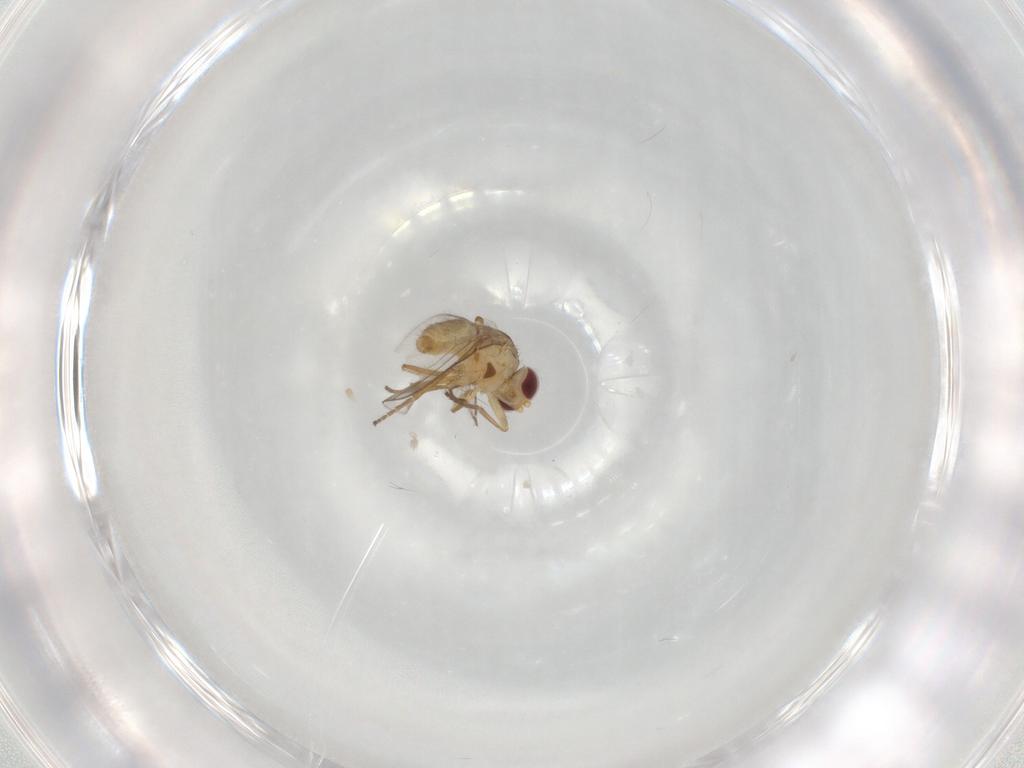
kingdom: Animalia
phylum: Arthropoda
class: Insecta
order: Diptera
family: Agromyzidae
